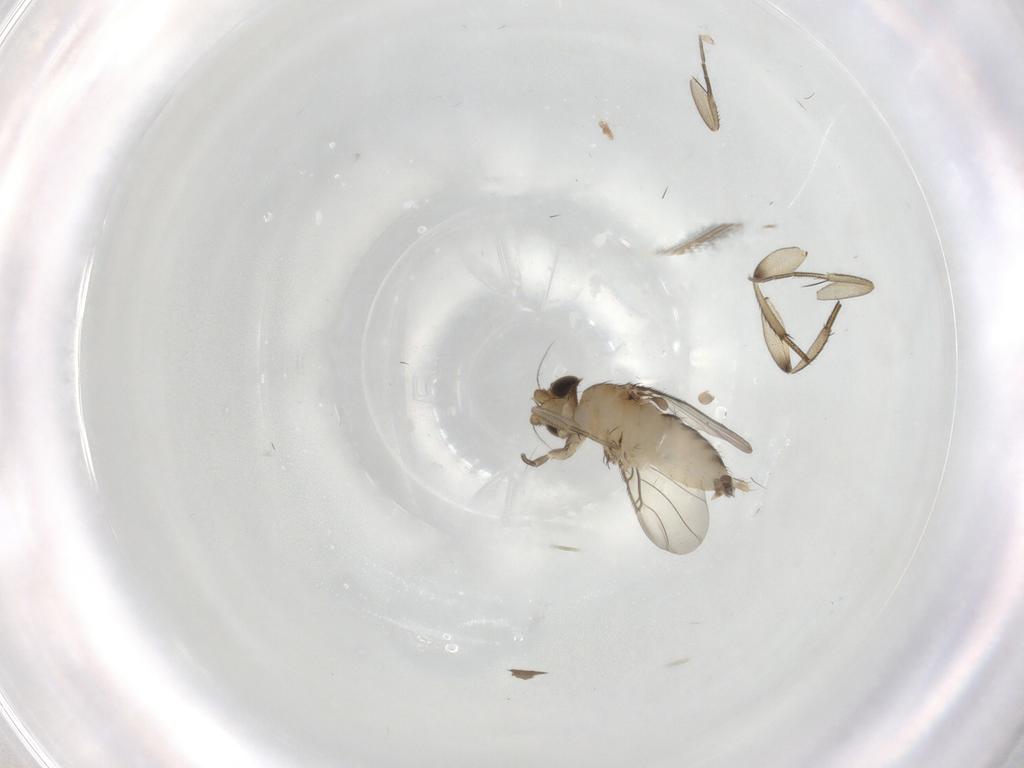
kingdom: Animalia
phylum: Arthropoda
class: Insecta
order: Diptera
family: Phoridae
